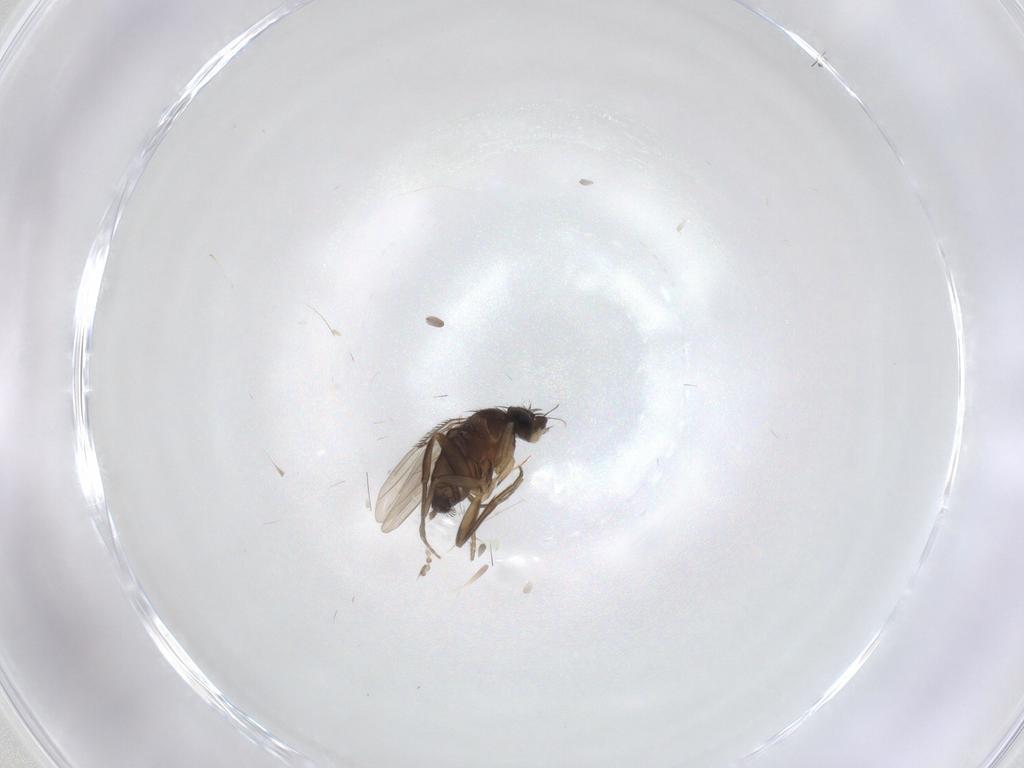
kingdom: Animalia
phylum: Arthropoda
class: Insecta
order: Diptera
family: Phoridae
